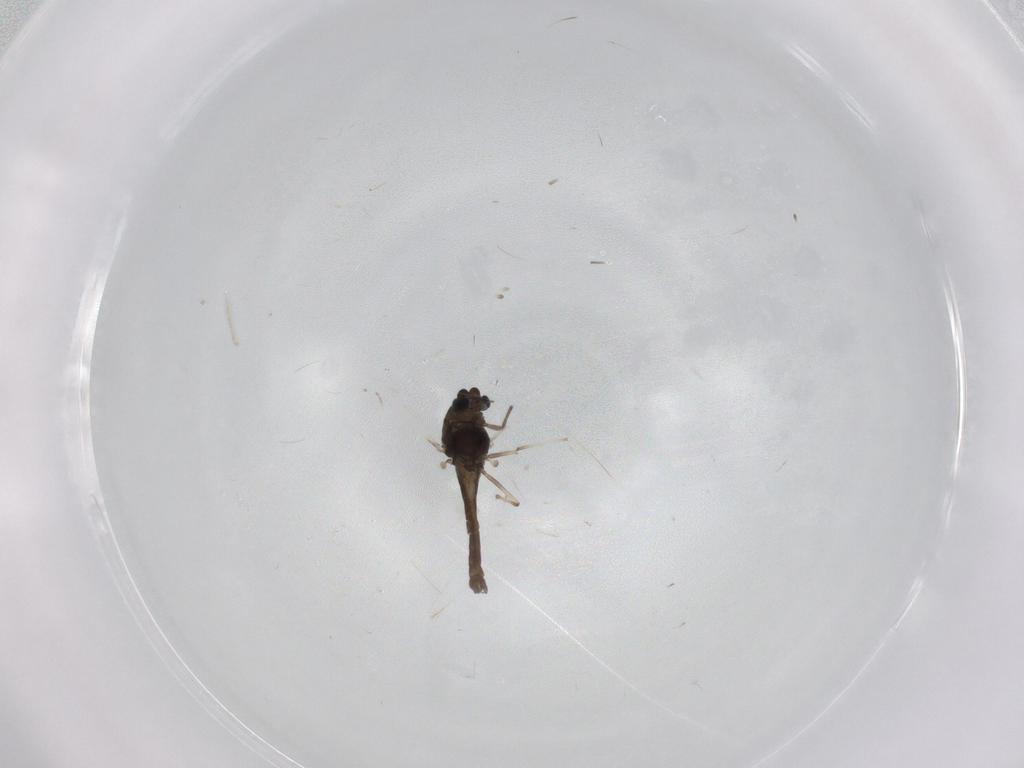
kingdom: Animalia
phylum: Arthropoda
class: Insecta
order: Diptera
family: Chironomidae
